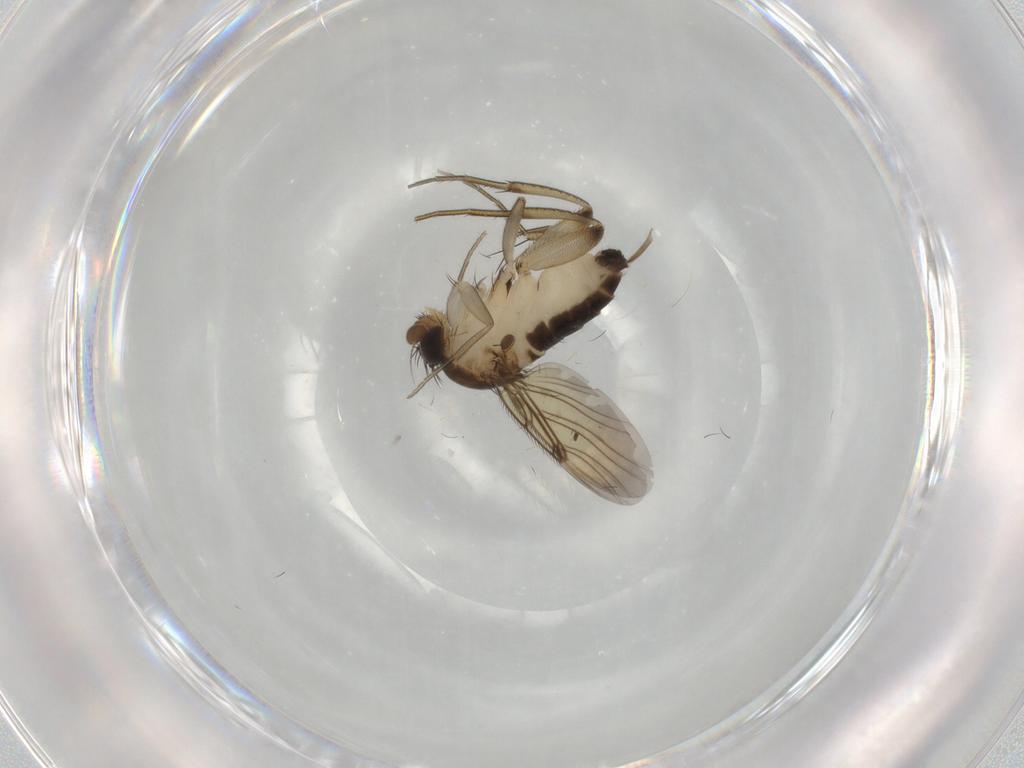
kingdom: Animalia
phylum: Arthropoda
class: Insecta
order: Diptera
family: Phoridae
